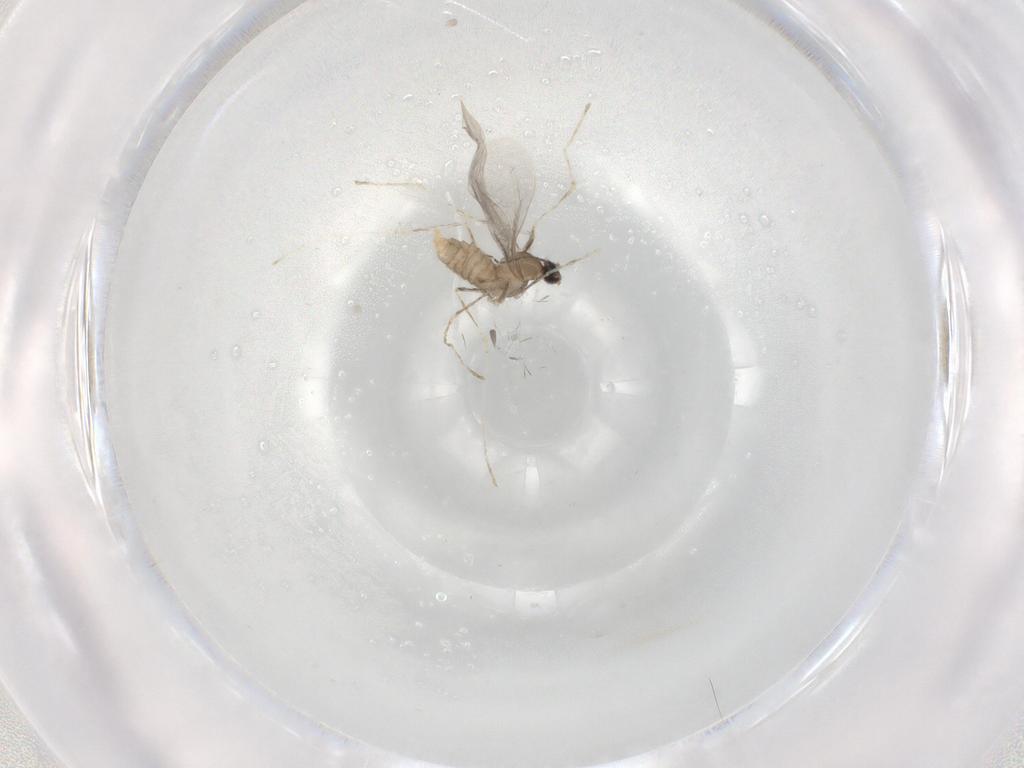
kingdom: Animalia
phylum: Arthropoda
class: Insecta
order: Diptera
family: Cecidomyiidae
